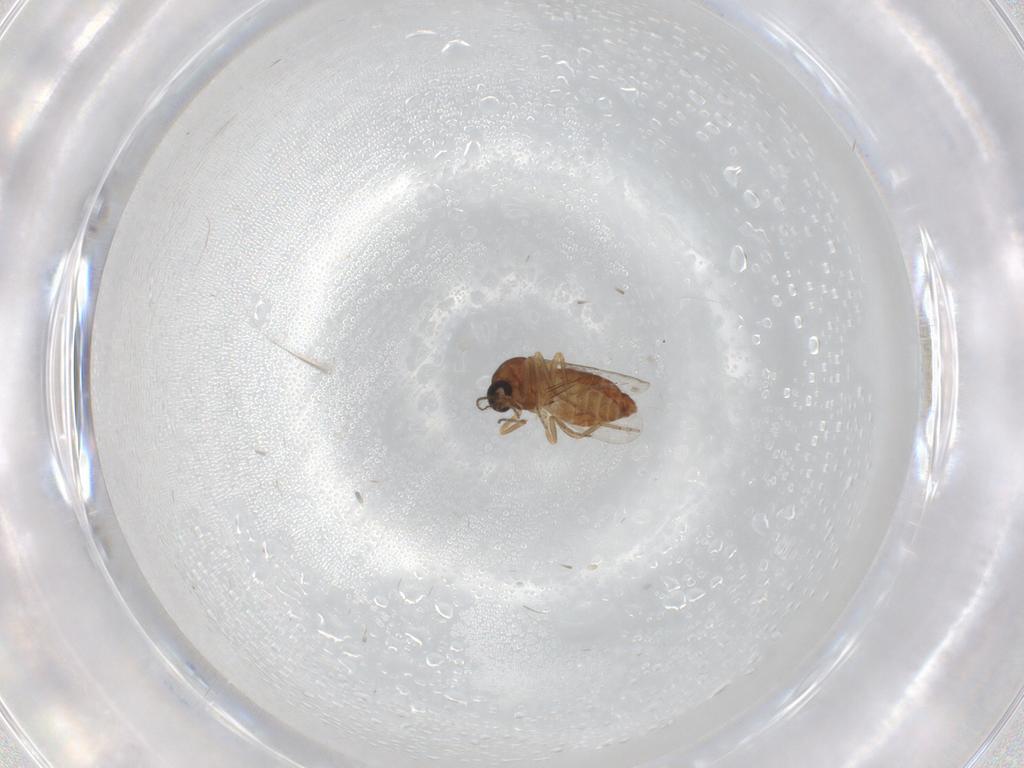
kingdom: Animalia
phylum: Arthropoda
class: Insecta
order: Diptera
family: Ceratopogonidae
